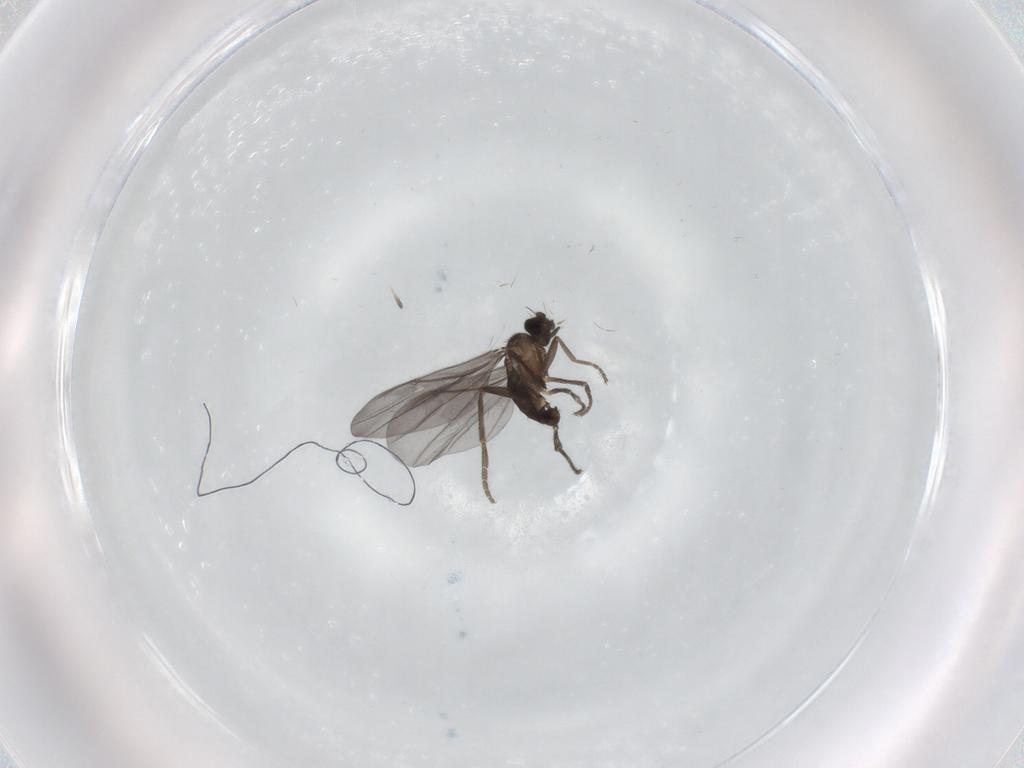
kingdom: Animalia
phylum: Arthropoda
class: Insecta
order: Diptera
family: Phoridae
